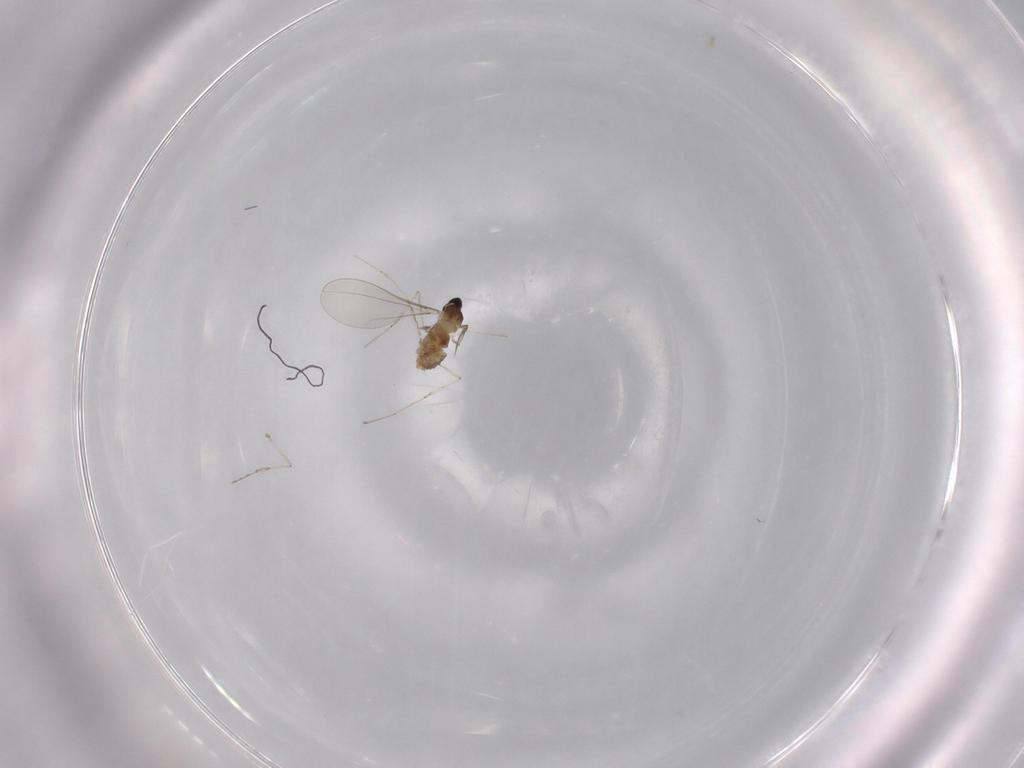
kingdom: Animalia
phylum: Arthropoda
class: Insecta
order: Diptera
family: Cecidomyiidae
